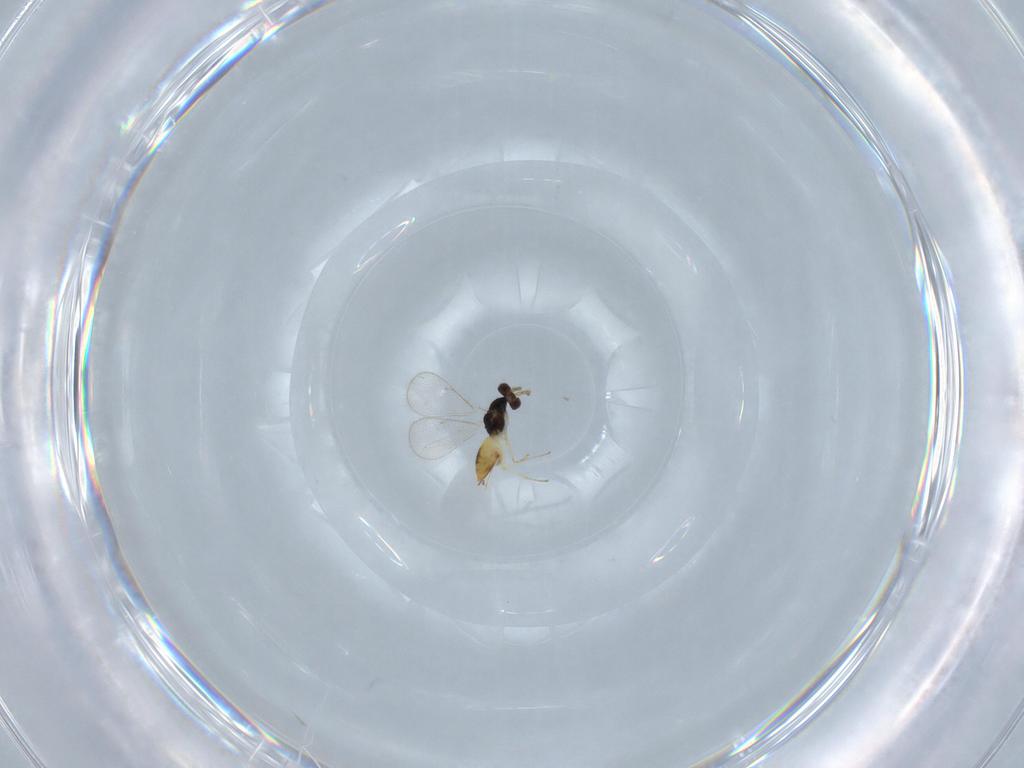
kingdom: Animalia
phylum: Arthropoda
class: Insecta
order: Hymenoptera
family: Eulophidae
